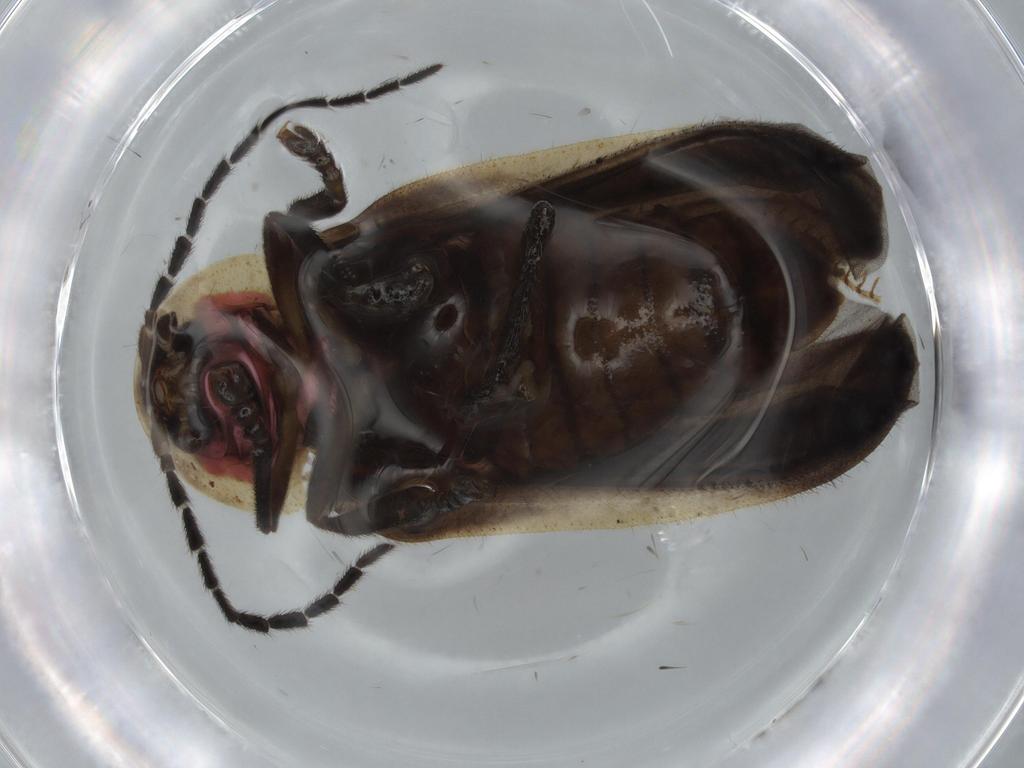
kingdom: Animalia
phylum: Arthropoda
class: Insecta
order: Coleoptera
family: Lampyridae
